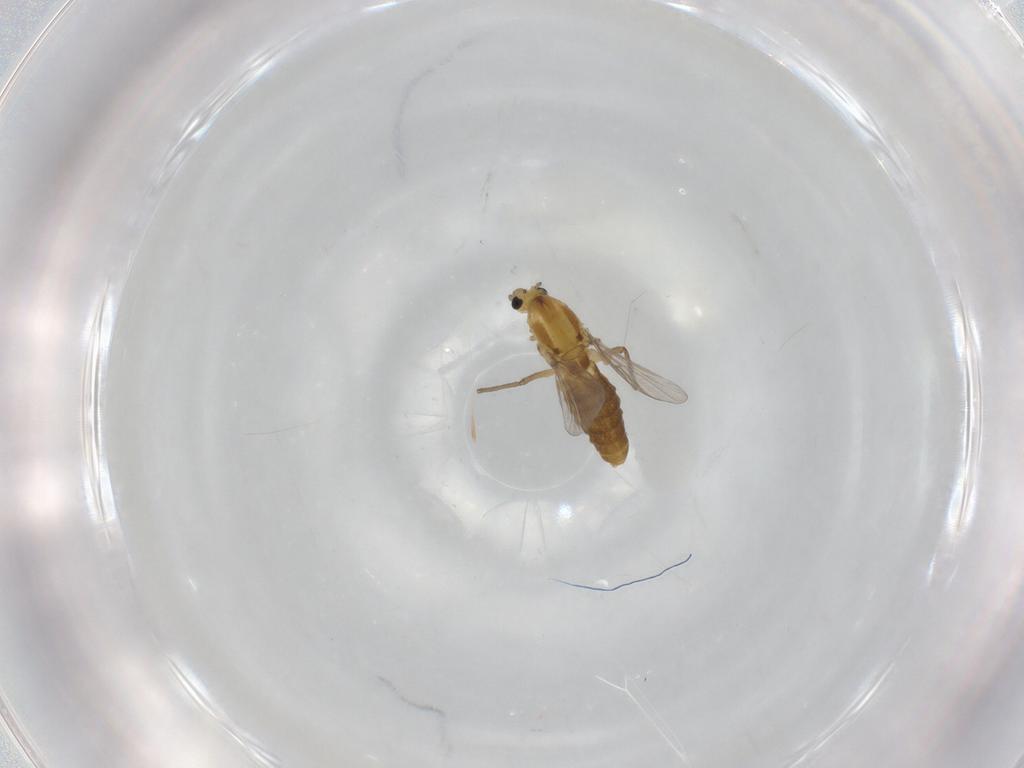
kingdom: Animalia
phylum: Arthropoda
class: Insecta
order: Diptera
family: Chironomidae
